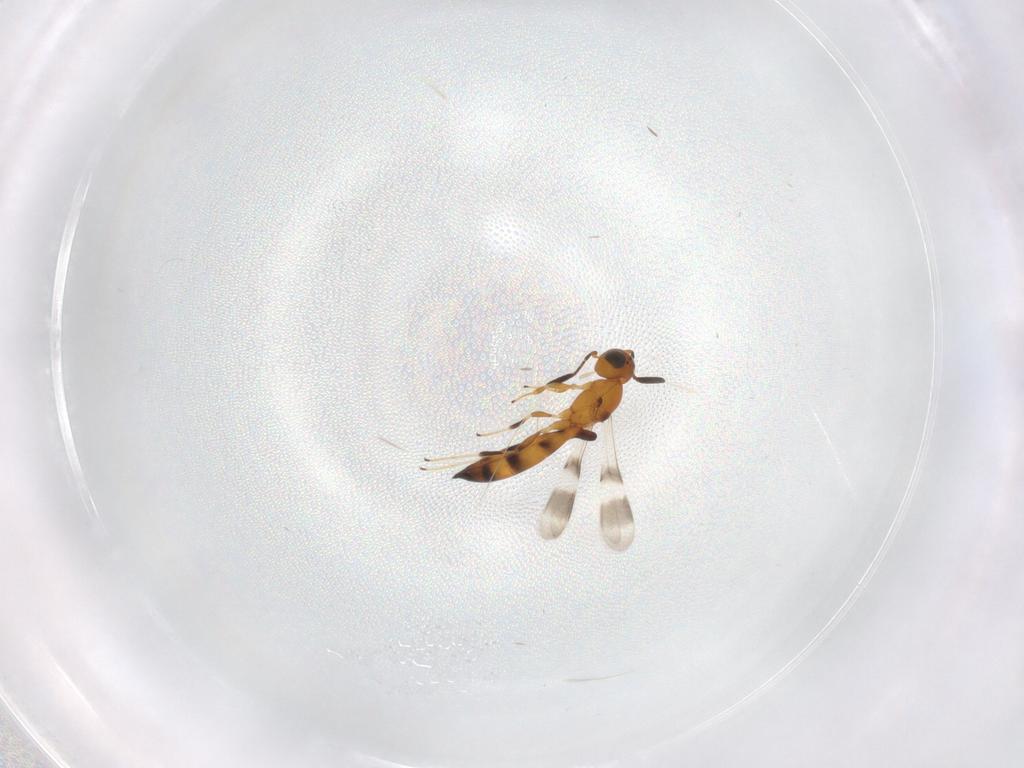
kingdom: Animalia
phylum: Arthropoda
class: Insecta
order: Hymenoptera
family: Scelionidae
